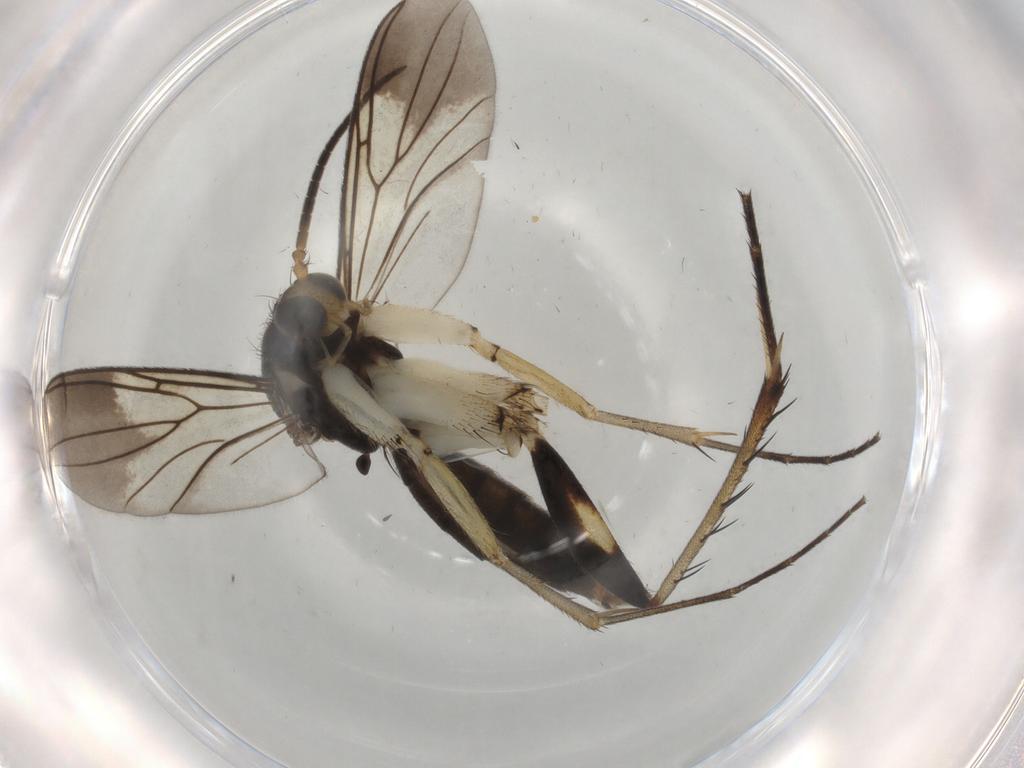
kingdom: Animalia
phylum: Arthropoda
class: Insecta
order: Diptera
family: Phoridae
